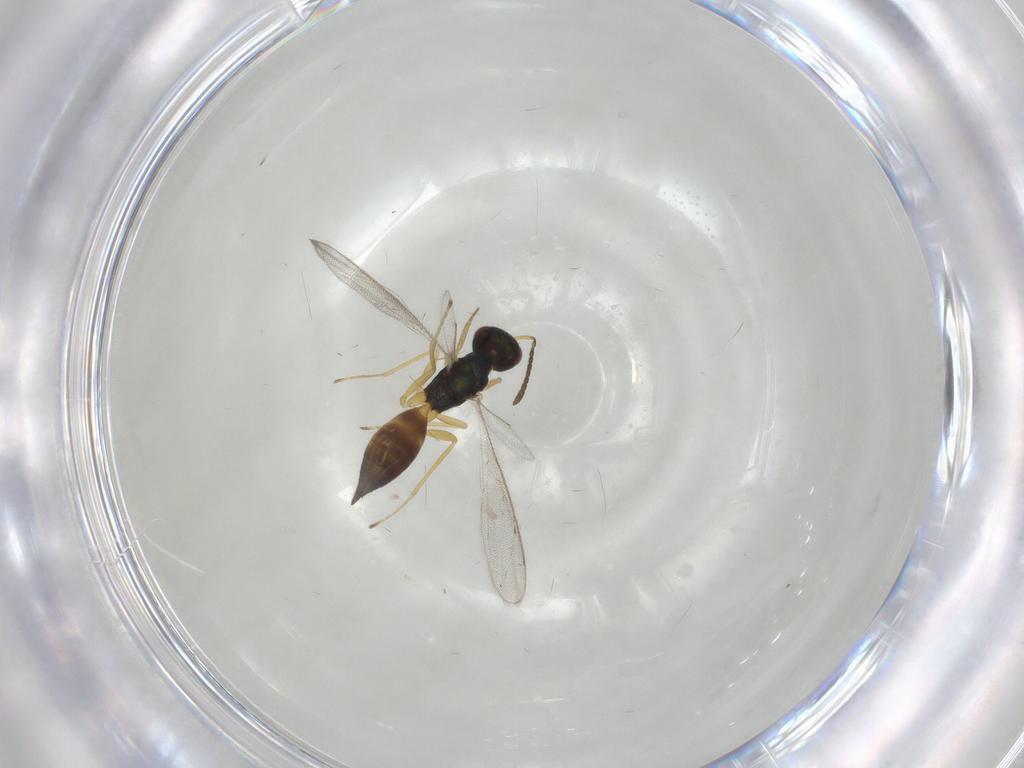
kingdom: Animalia
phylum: Arthropoda
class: Insecta
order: Hymenoptera
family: Pteromalidae
